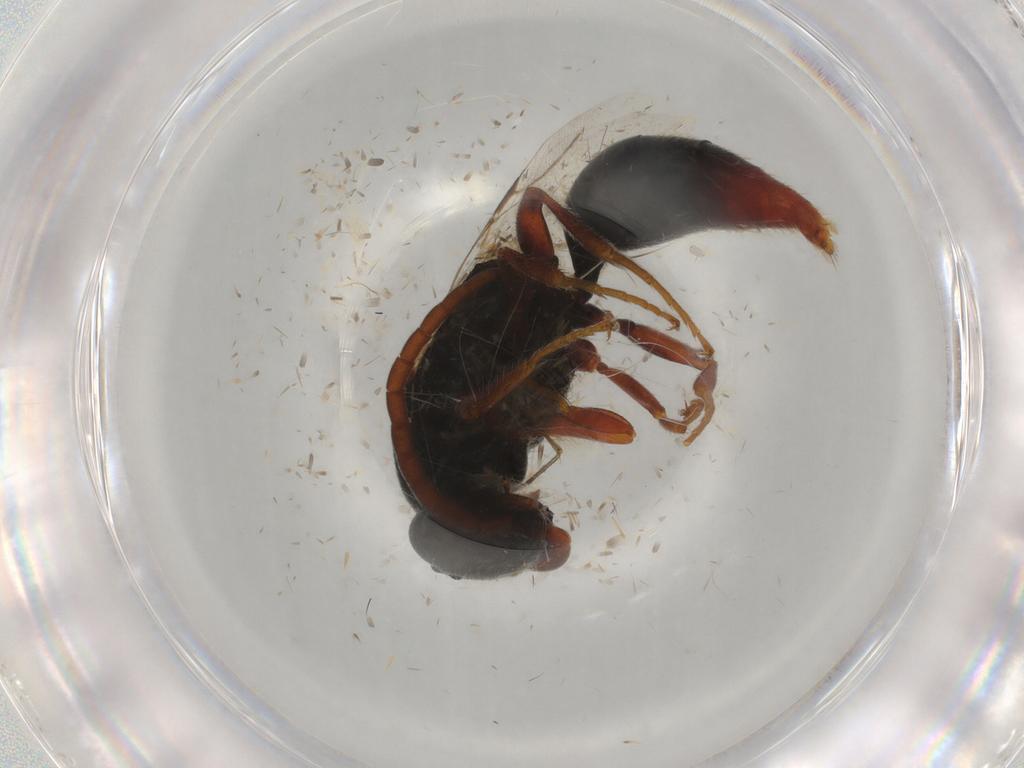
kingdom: Animalia
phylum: Arthropoda
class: Insecta
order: Hymenoptera
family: Bethylidae
